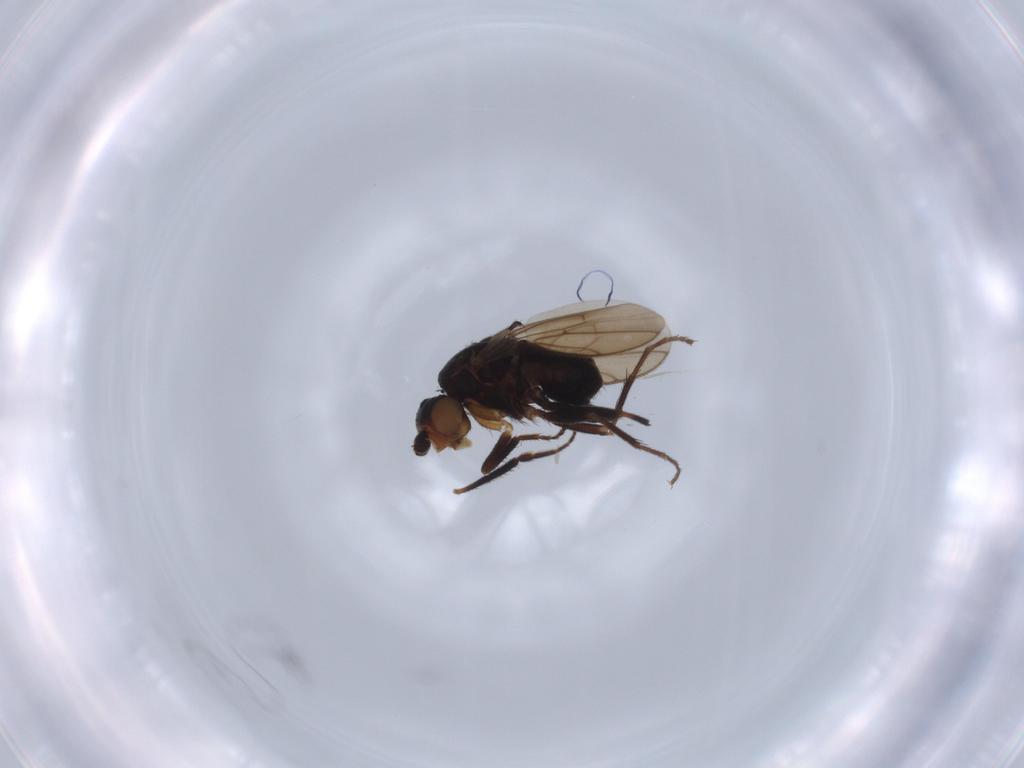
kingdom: Animalia
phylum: Arthropoda
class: Insecta
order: Diptera
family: Sphaeroceridae
